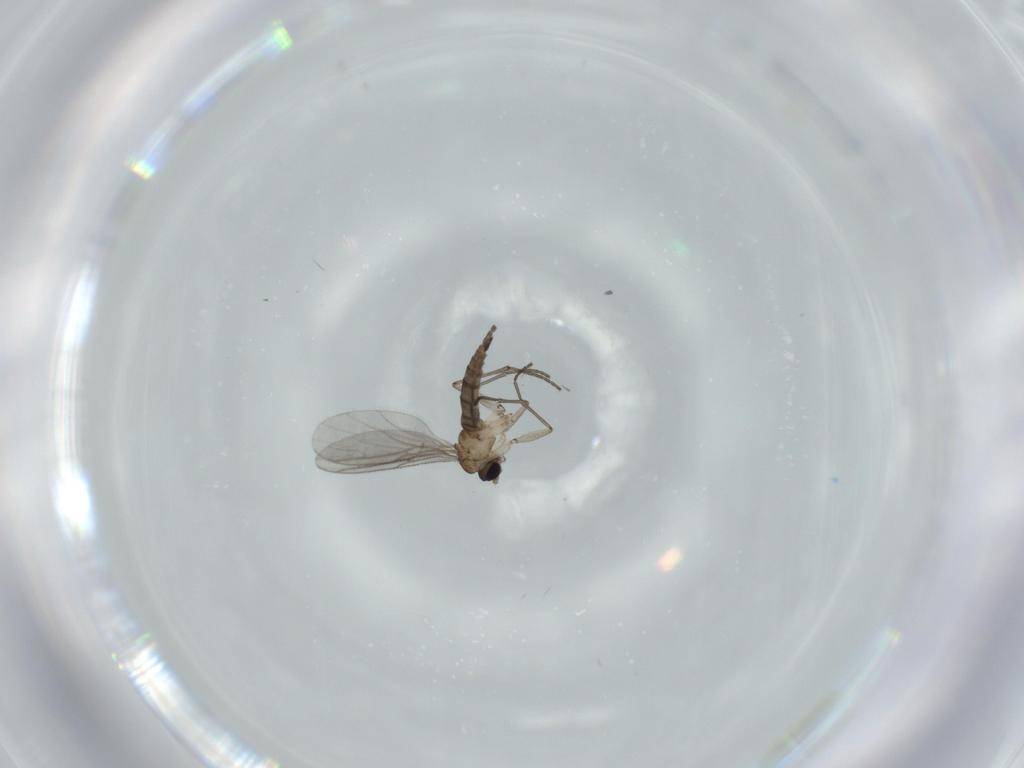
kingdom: Animalia
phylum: Arthropoda
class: Insecta
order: Diptera
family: Sciaridae
